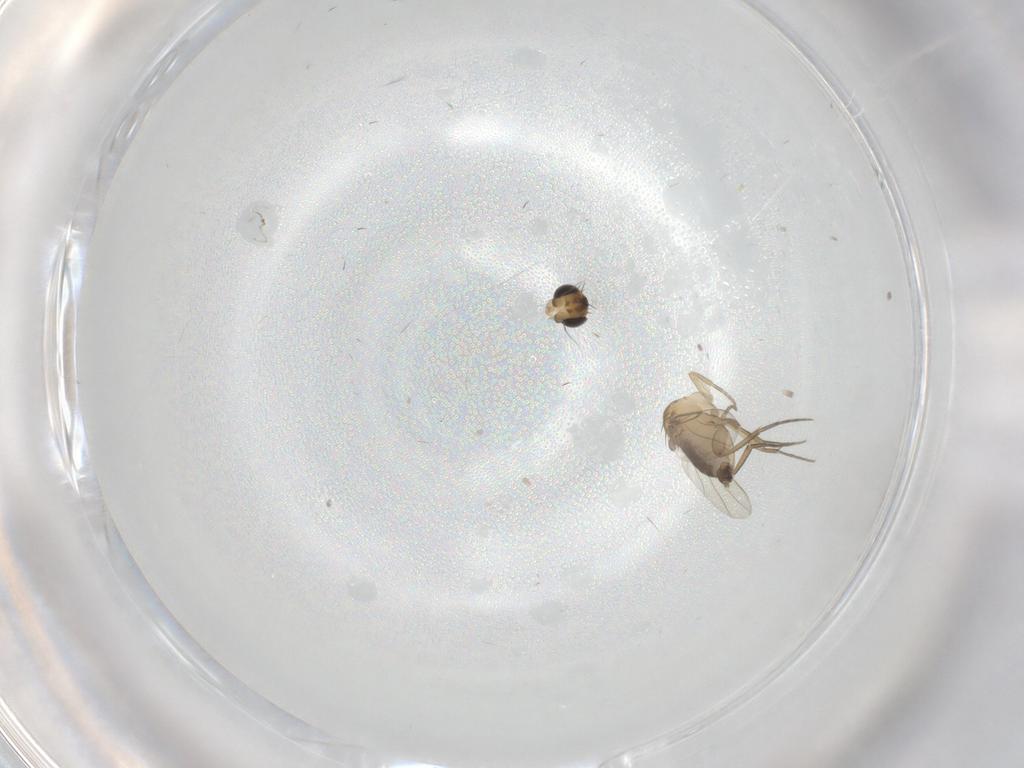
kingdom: Animalia
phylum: Arthropoda
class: Insecta
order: Diptera
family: Phoridae
